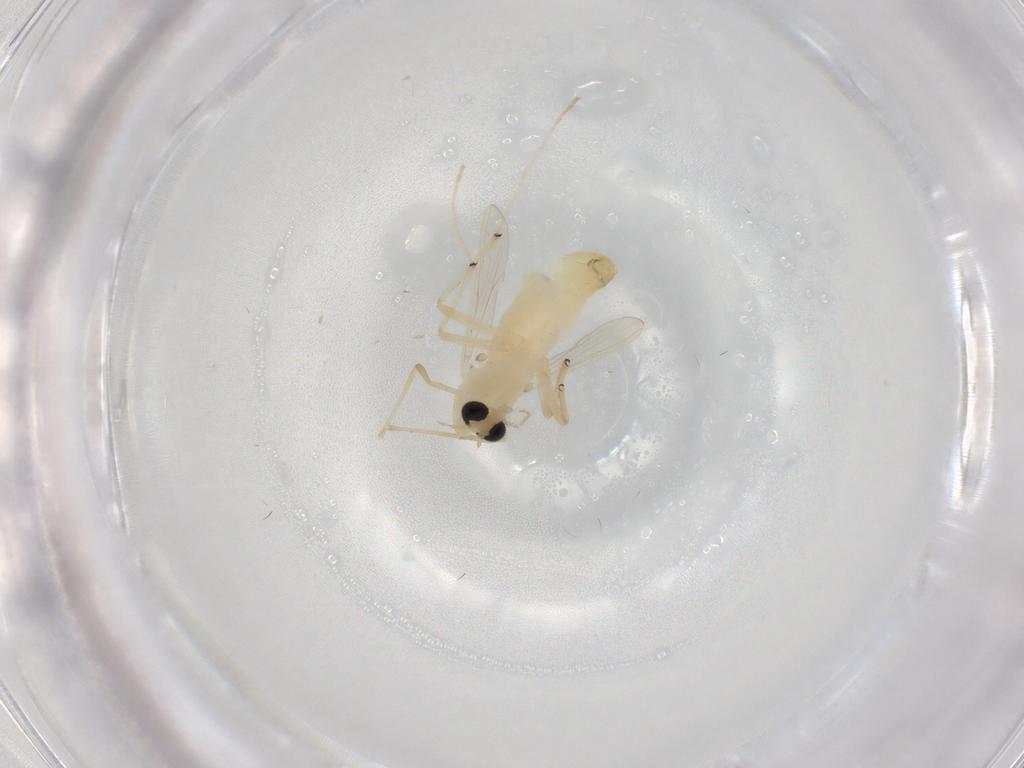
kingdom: Animalia
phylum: Arthropoda
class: Insecta
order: Diptera
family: Chironomidae
